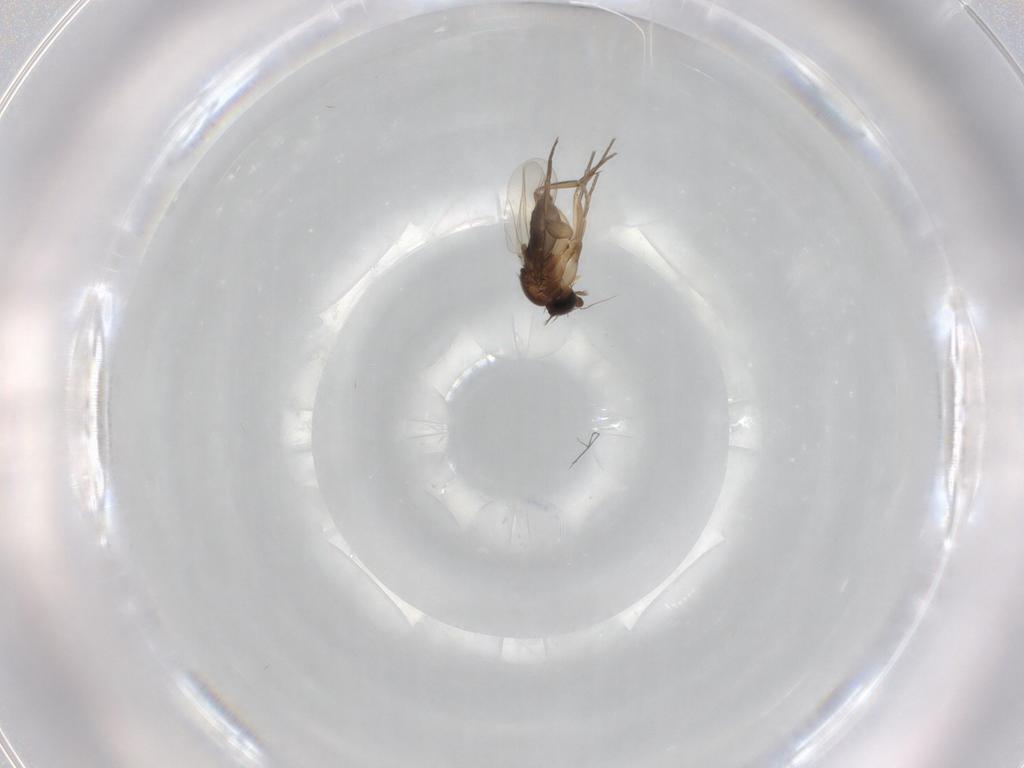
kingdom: Animalia
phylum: Arthropoda
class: Insecta
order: Diptera
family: Phoridae
